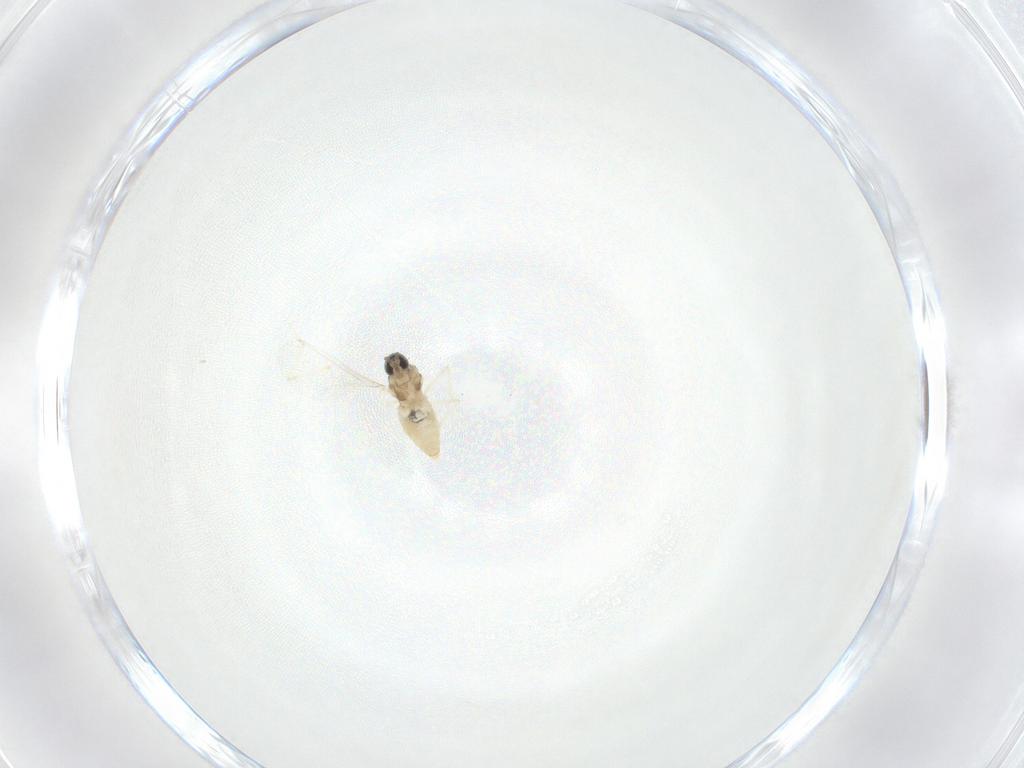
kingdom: Animalia
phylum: Arthropoda
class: Insecta
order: Diptera
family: Cecidomyiidae
